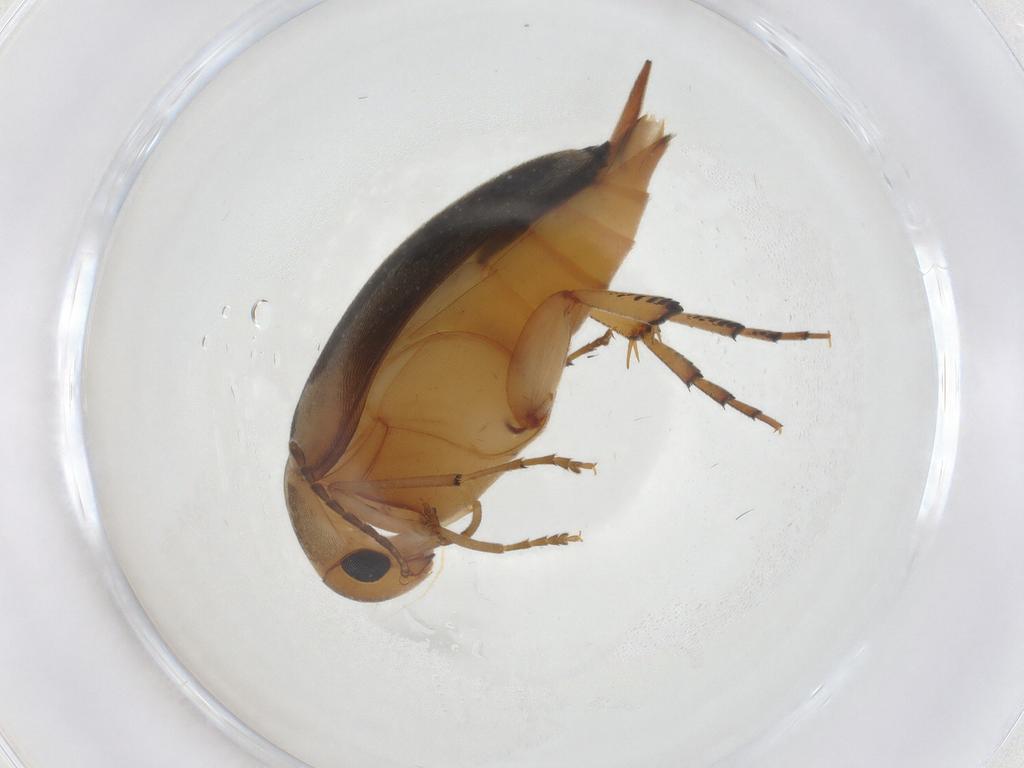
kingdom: Animalia
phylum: Arthropoda
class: Insecta
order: Coleoptera
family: Mordellidae
